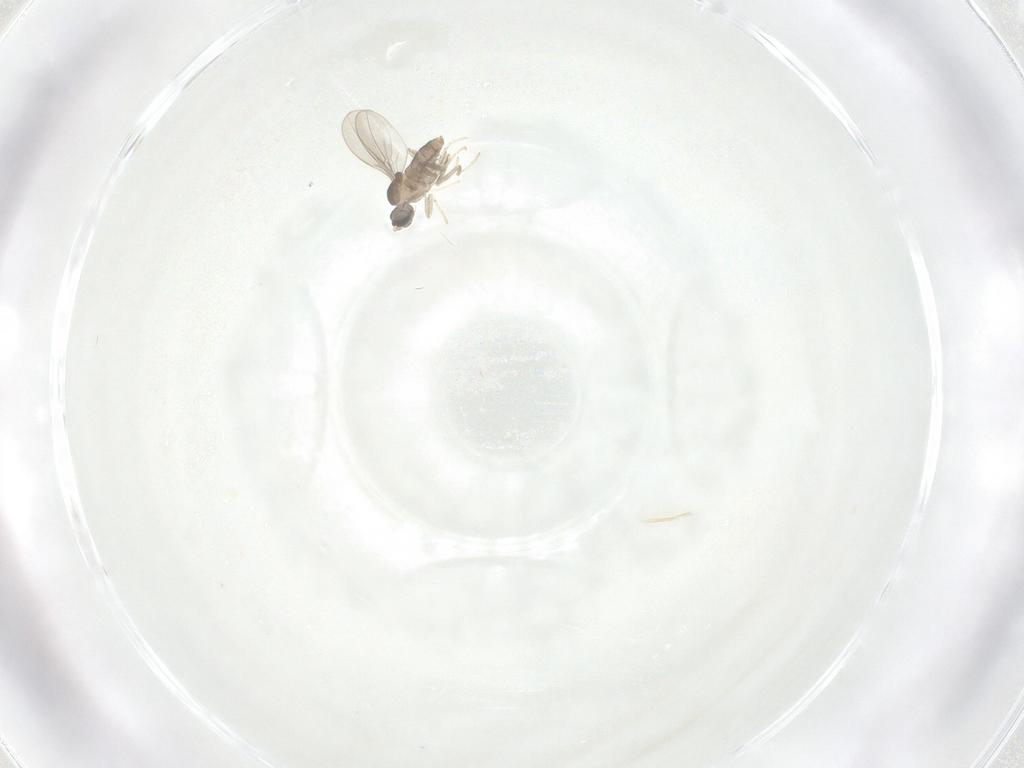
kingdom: Animalia
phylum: Arthropoda
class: Insecta
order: Diptera
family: Cecidomyiidae
